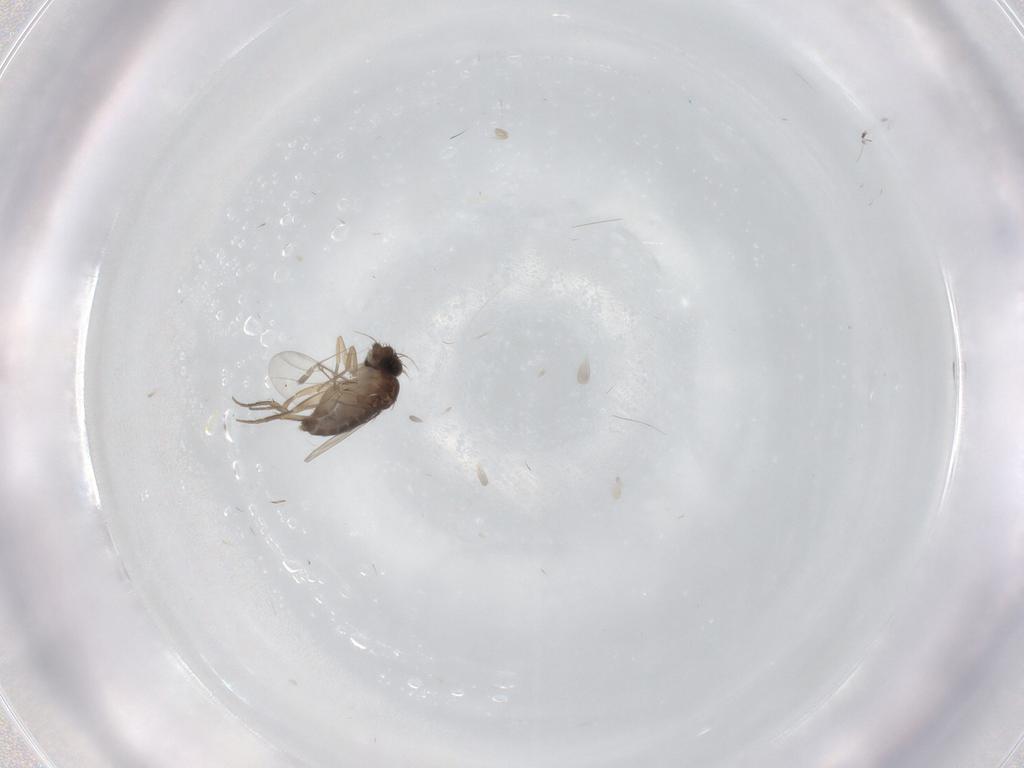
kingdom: Animalia
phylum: Arthropoda
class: Insecta
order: Diptera
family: Phoridae
